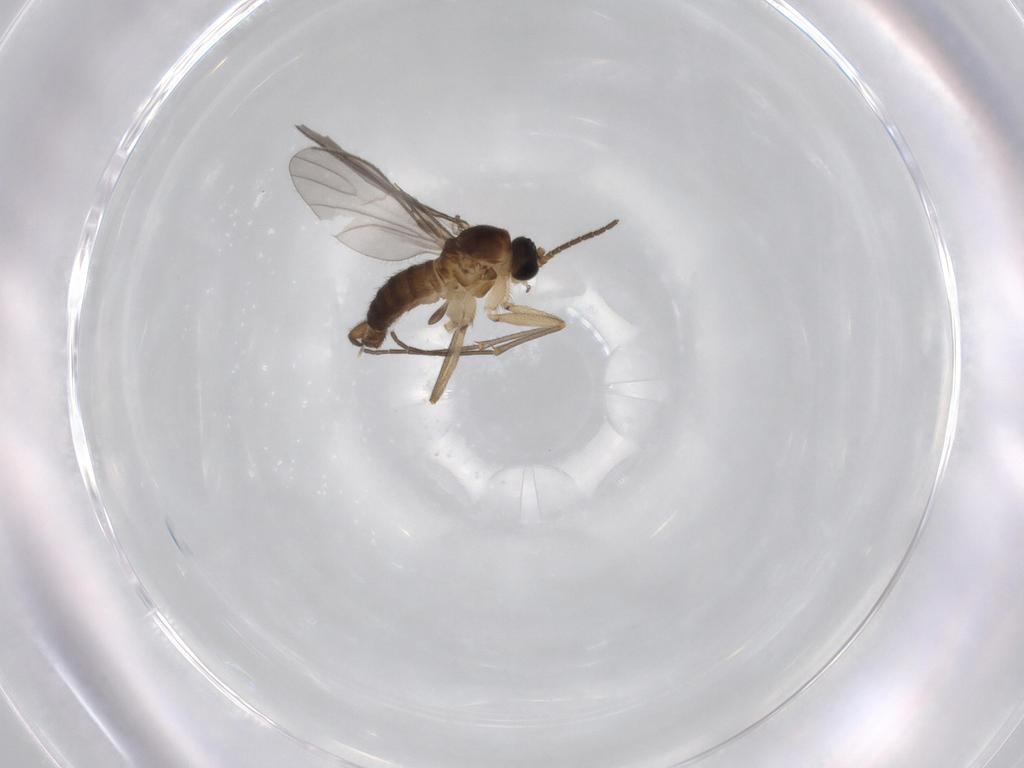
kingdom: Animalia
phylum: Arthropoda
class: Insecta
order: Diptera
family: Sciaridae
